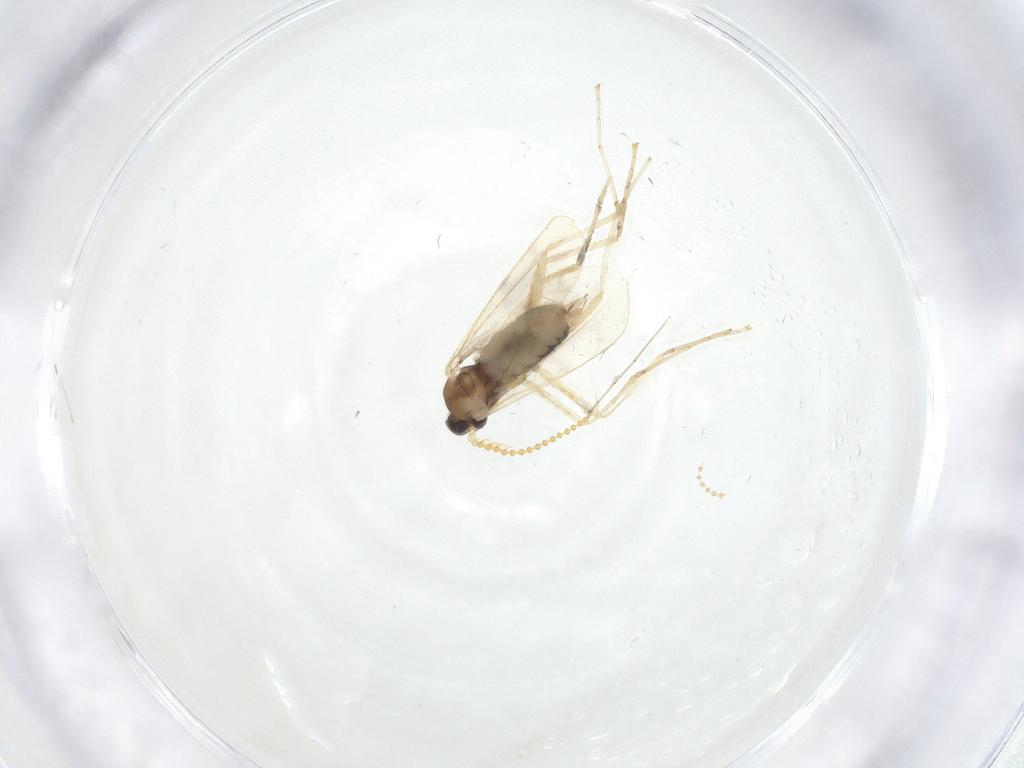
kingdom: Animalia
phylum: Arthropoda
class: Insecta
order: Diptera
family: Cecidomyiidae
